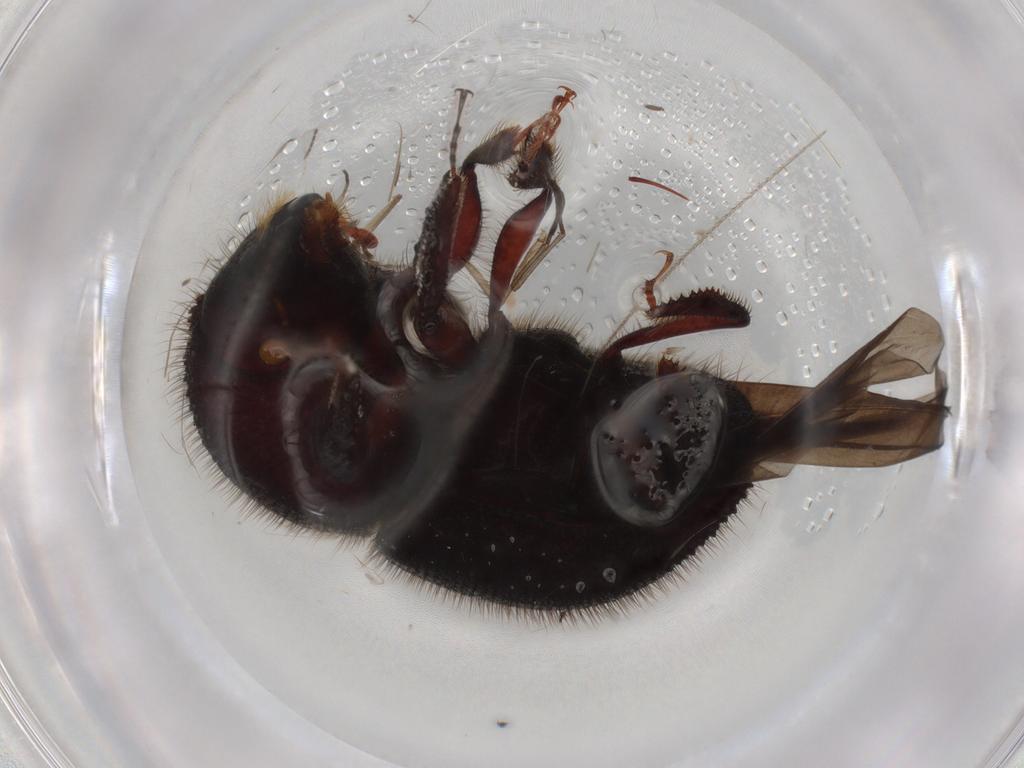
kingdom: Animalia
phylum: Arthropoda
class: Insecta
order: Coleoptera
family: Curculionidae
